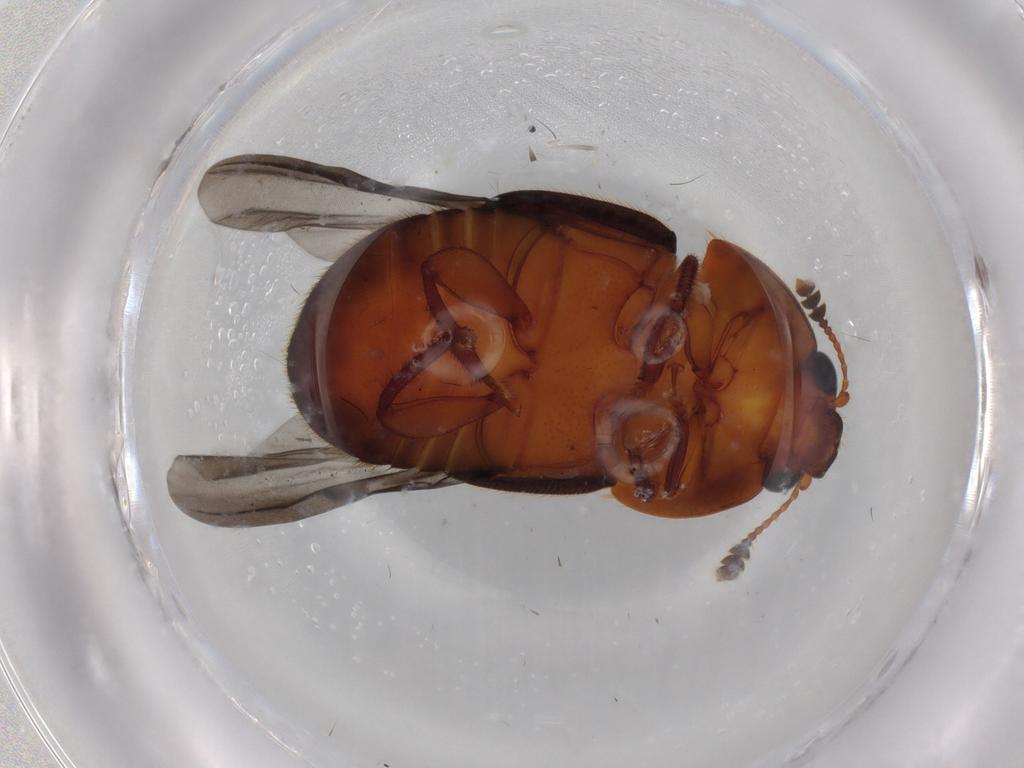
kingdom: Animalia
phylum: Arthropoda
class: Insecta
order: Coleoptera
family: Nitidulidae
